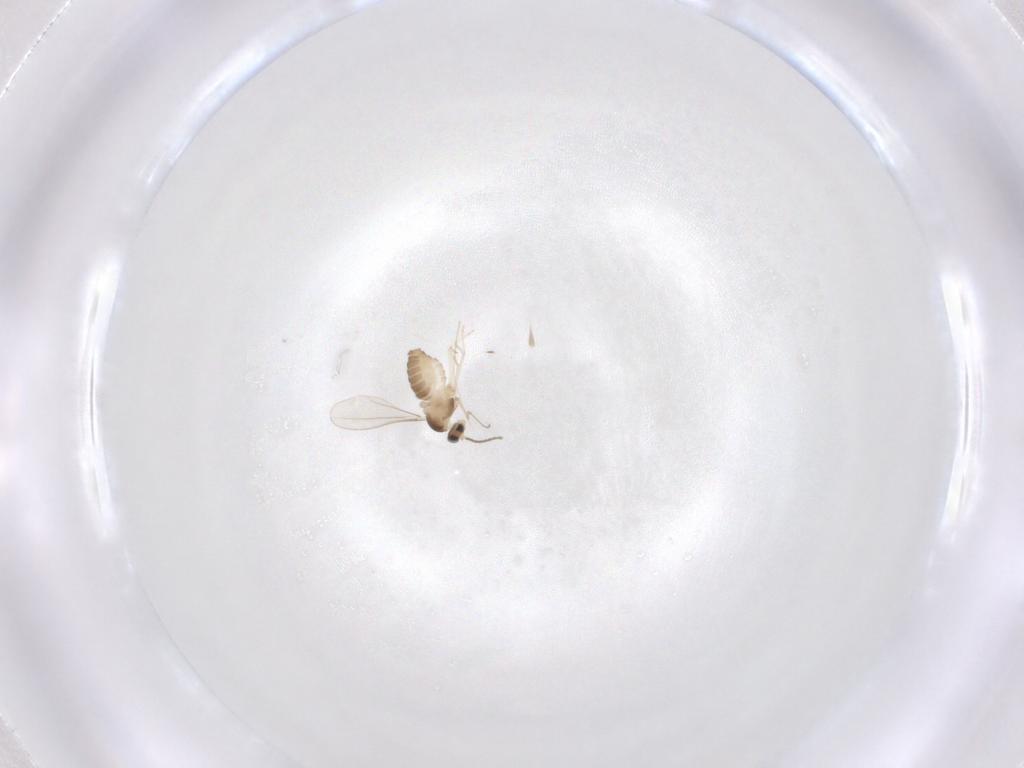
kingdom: Animalia
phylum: Arthropoda
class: Insecta
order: Diptera
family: Cecidomyiidae
